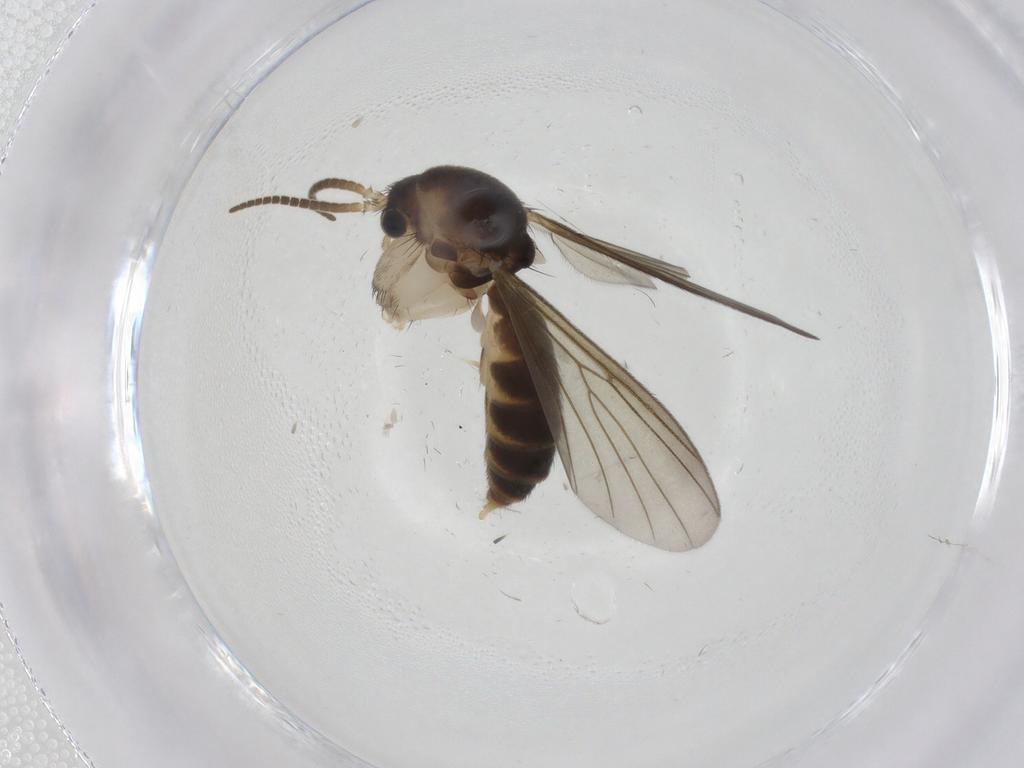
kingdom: Animalia
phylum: Arthropoda
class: Insecta
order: Diptera
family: Cecidomyiidae
